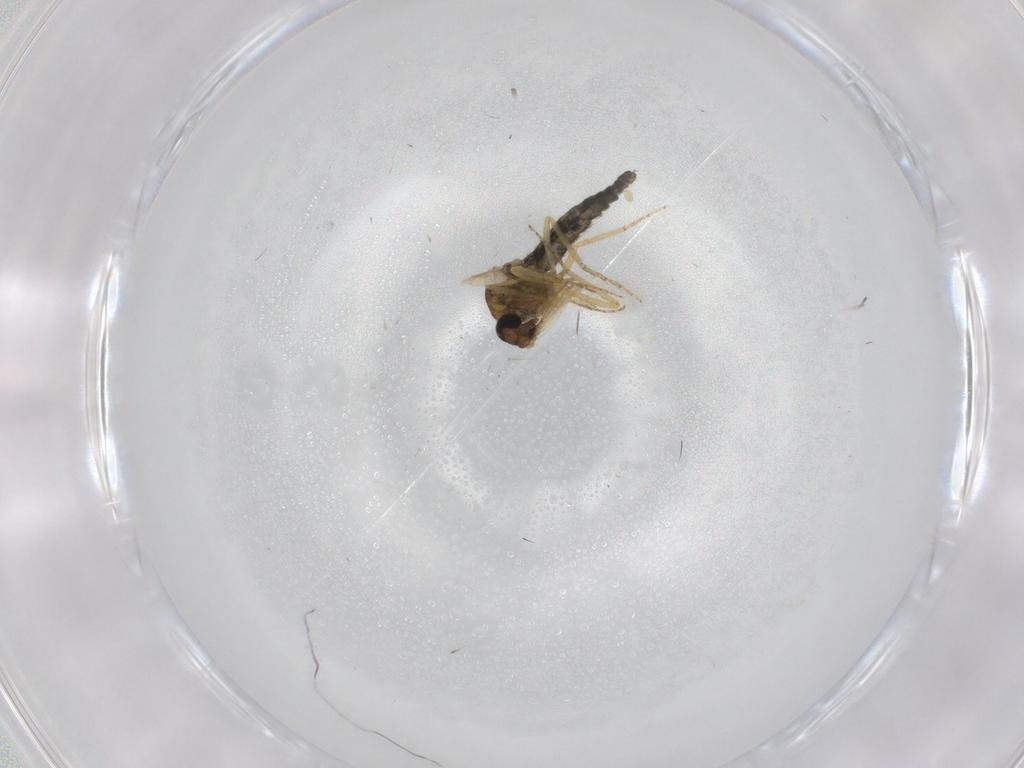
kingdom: Animalia
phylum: Arthropoda
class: Insecta
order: Diptera
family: Ceratopogonidae
